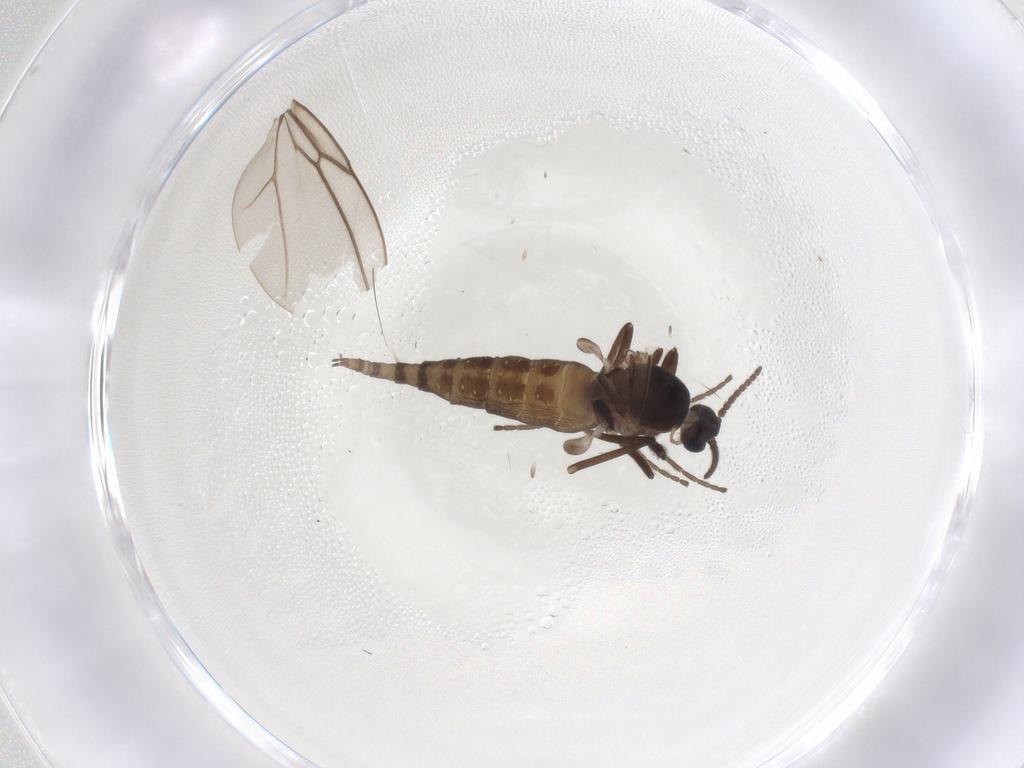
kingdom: Animalia
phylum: Arthropoda
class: Insecta
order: Diptera
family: Cecidomyiidae
